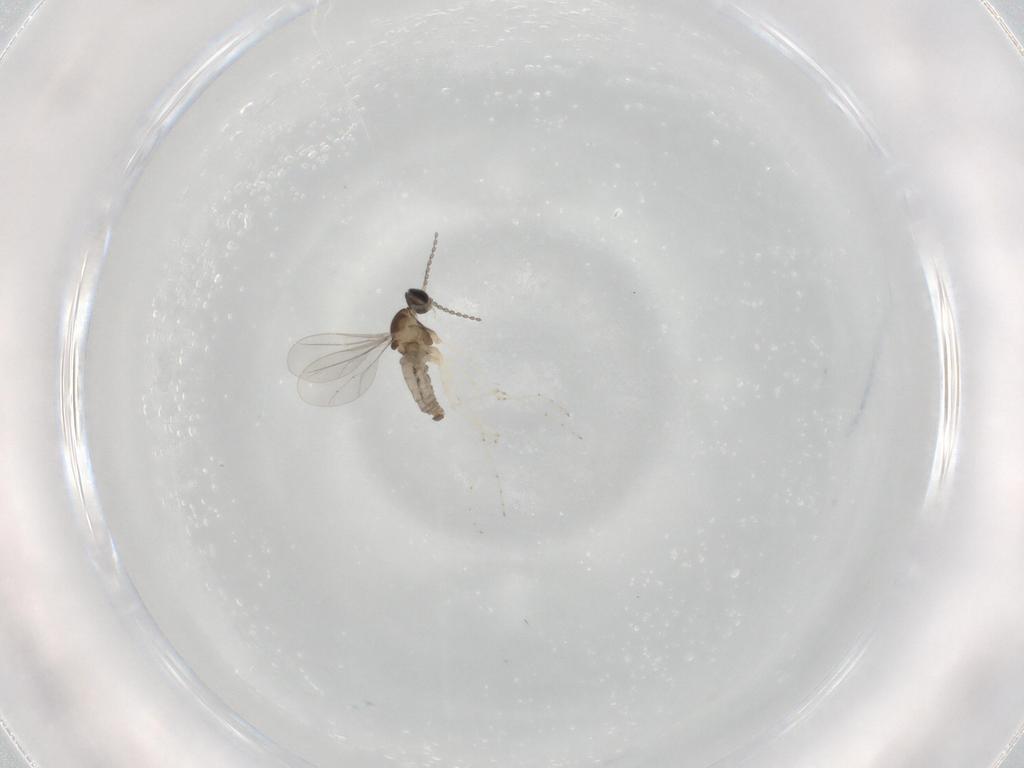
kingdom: Animalia
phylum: Arthropoda
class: Insecta
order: Diptera
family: Cecidomyiidae
